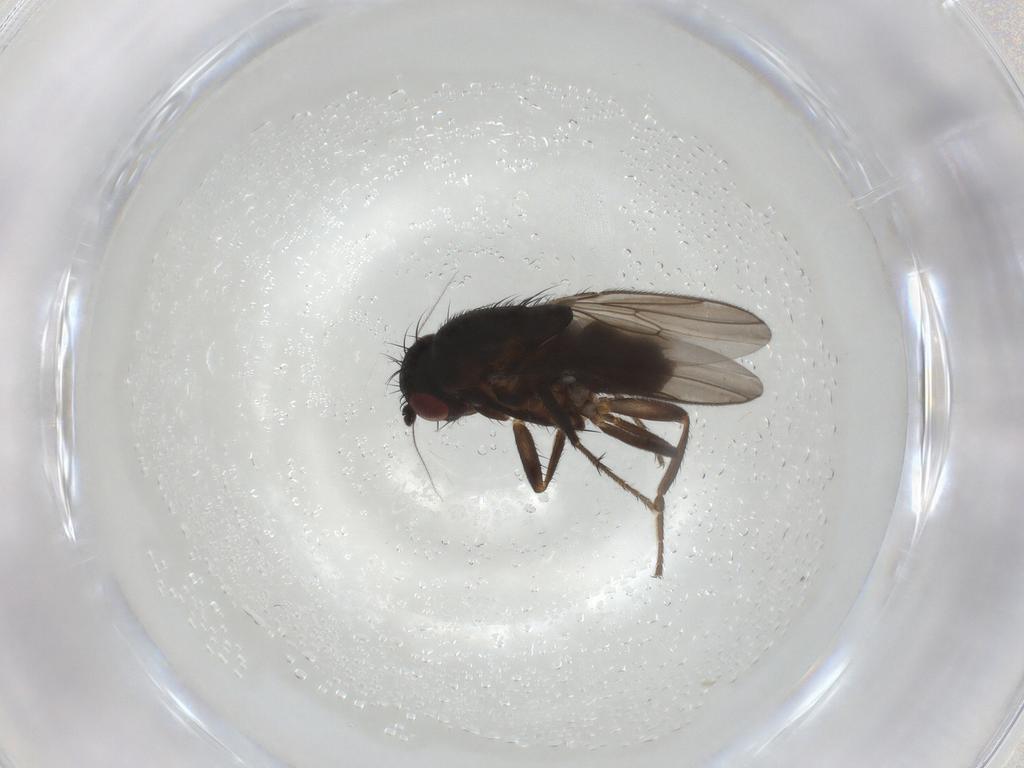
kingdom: Animalia
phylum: Arthropoda
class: Insecta
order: Diptera
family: Sphaeroceridae
